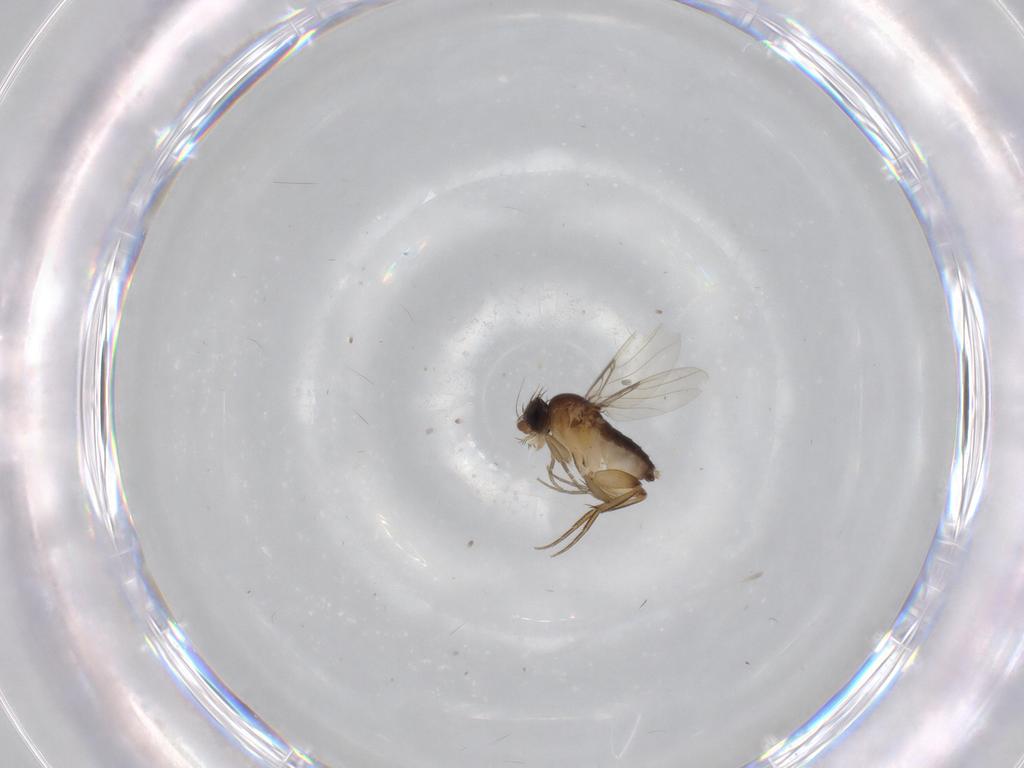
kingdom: Animalia
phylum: Arthropoda
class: Insecta
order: Diptera
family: Phoridae
